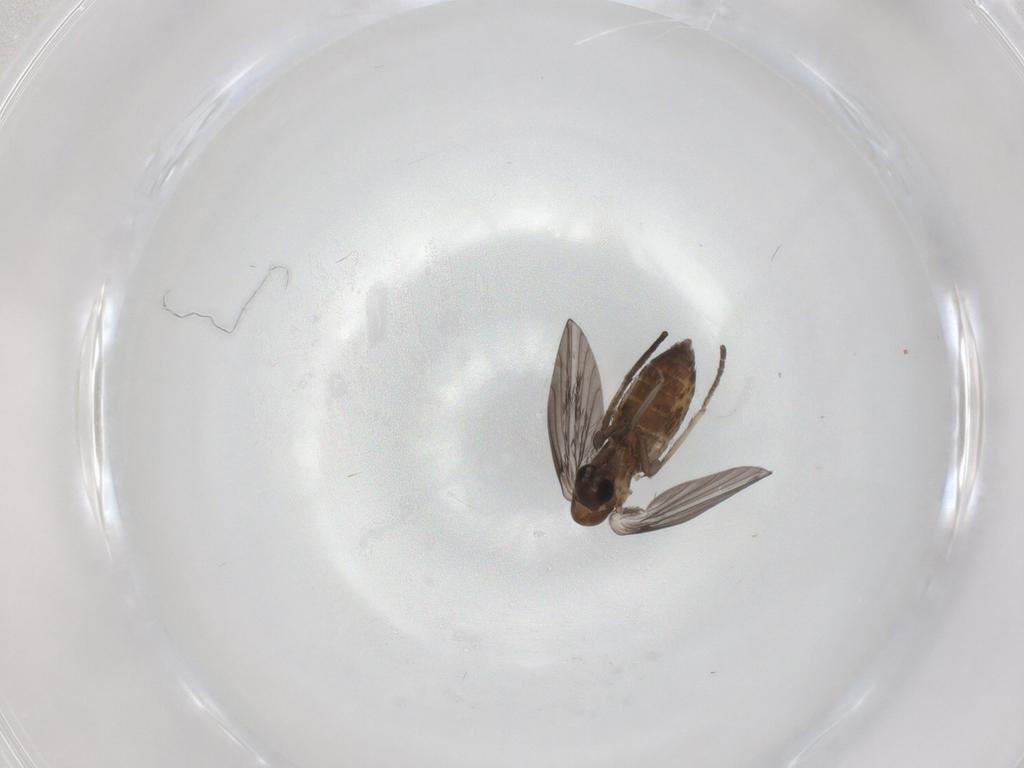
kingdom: Animalia
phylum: Arthropoda
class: Insecta
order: Diptera
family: Psychodidae
